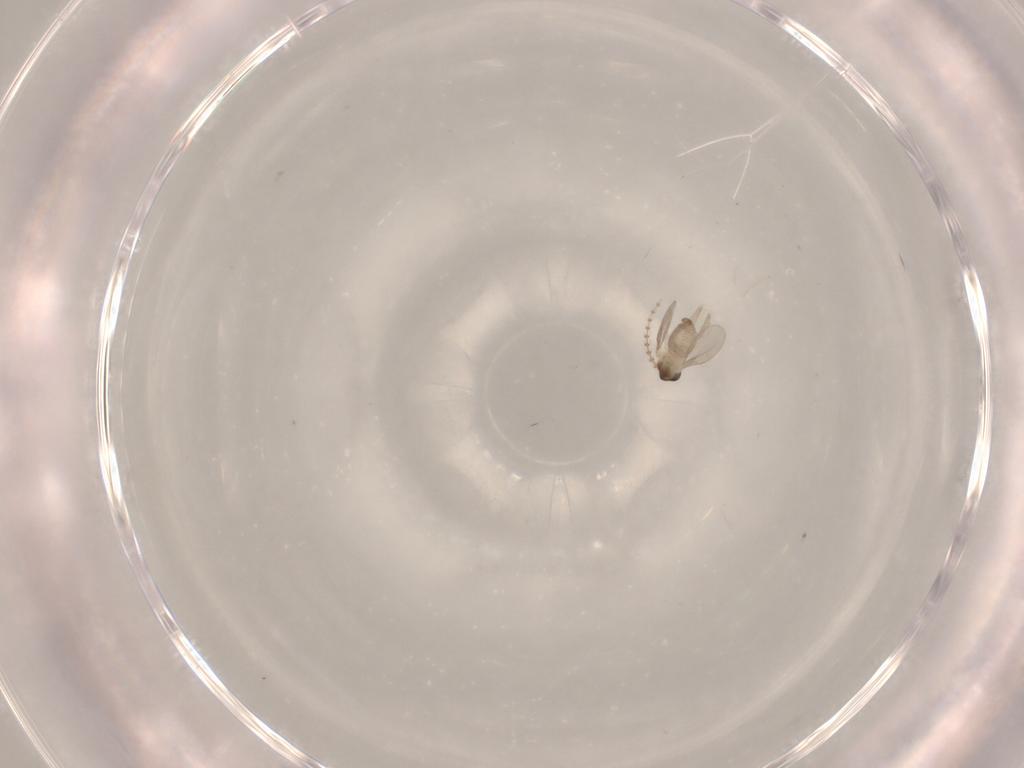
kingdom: Animalia
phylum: Arthropoda
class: Insecta
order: Diptera
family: Cecidomyiidae
